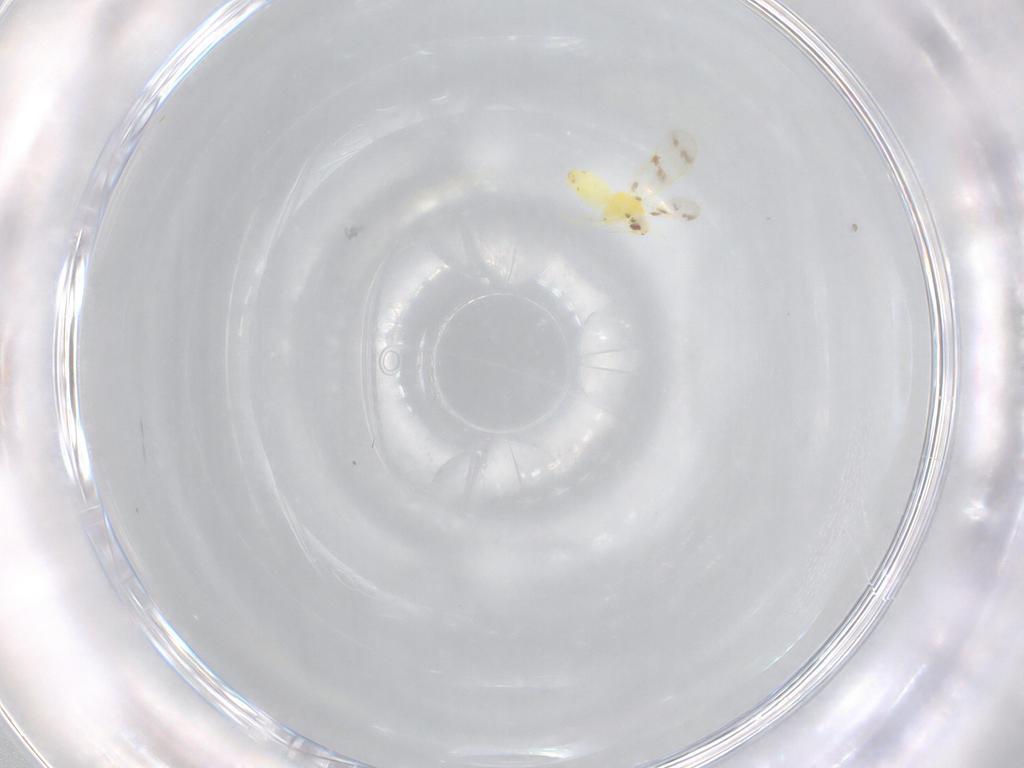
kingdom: Animalia
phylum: Arthropoda
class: Insecta
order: Hemiptera
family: Aleyrodidae
